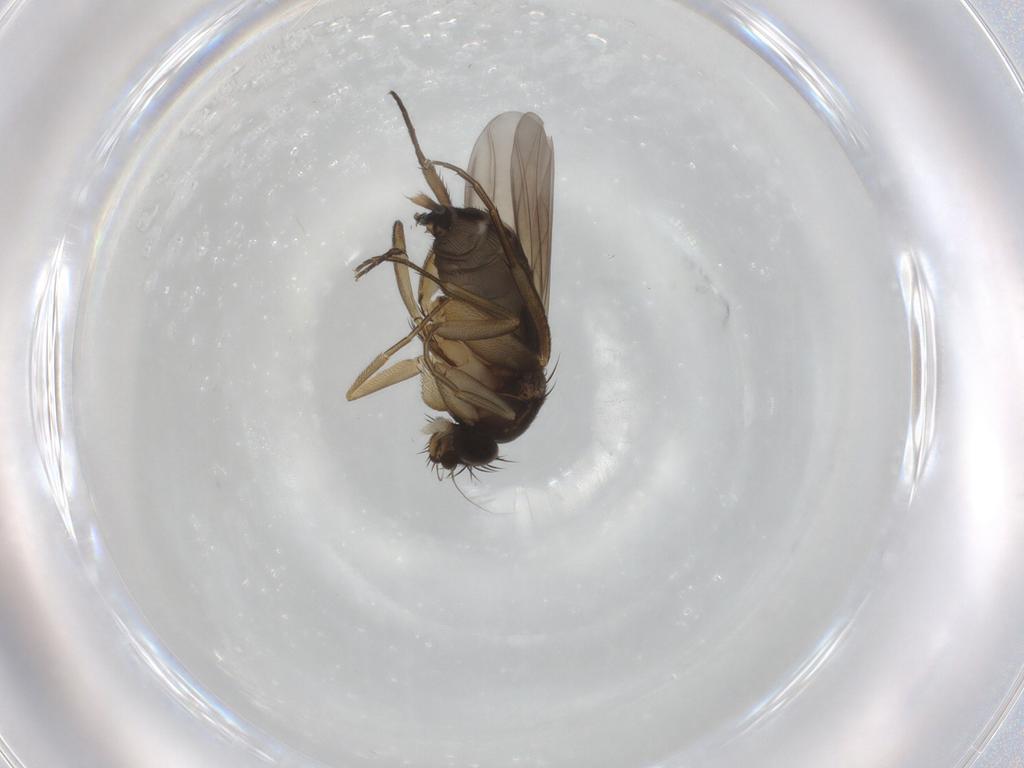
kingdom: Animalia
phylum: Arthropoda
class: Insecta
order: Diptera
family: Phoridae
